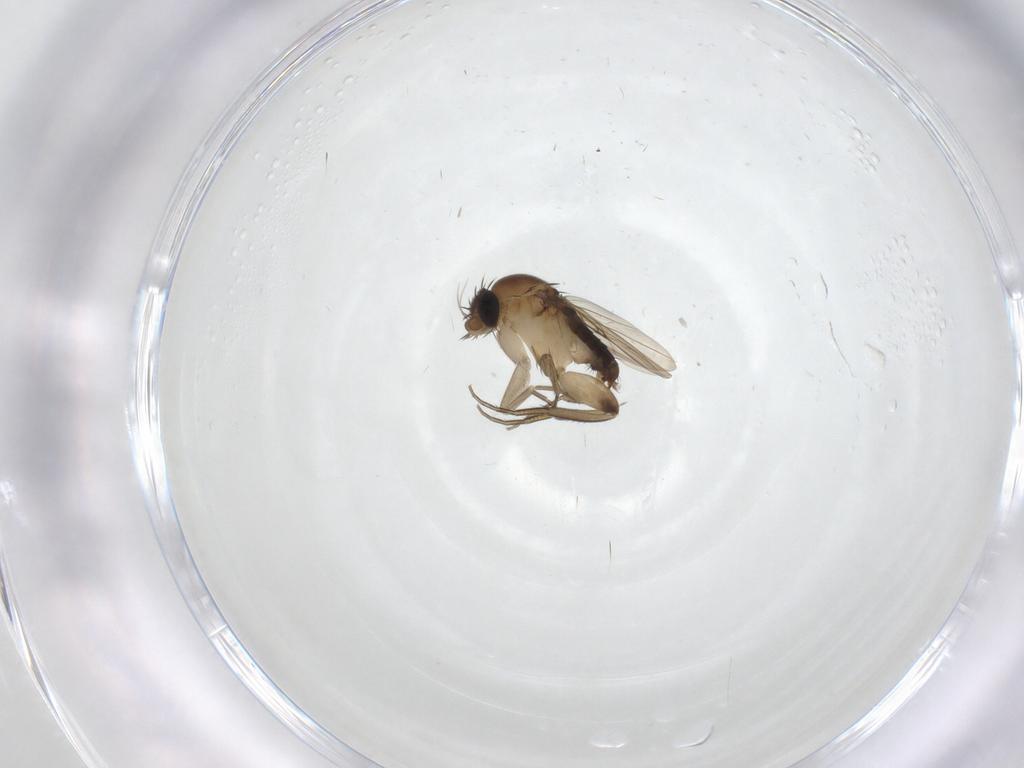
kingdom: Animalia
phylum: Arthropoda
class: Insecta
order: Diptera
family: Phoridae
